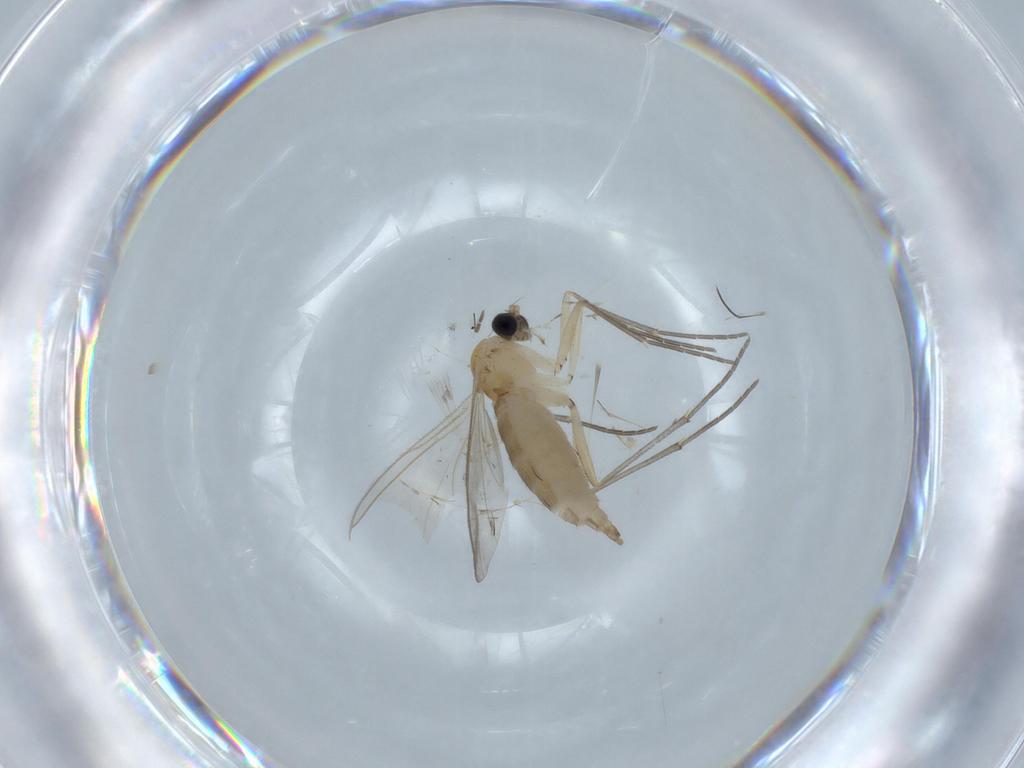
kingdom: Animalia
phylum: Arthropoda
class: Insecta
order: Diptera
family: Sciaridae
